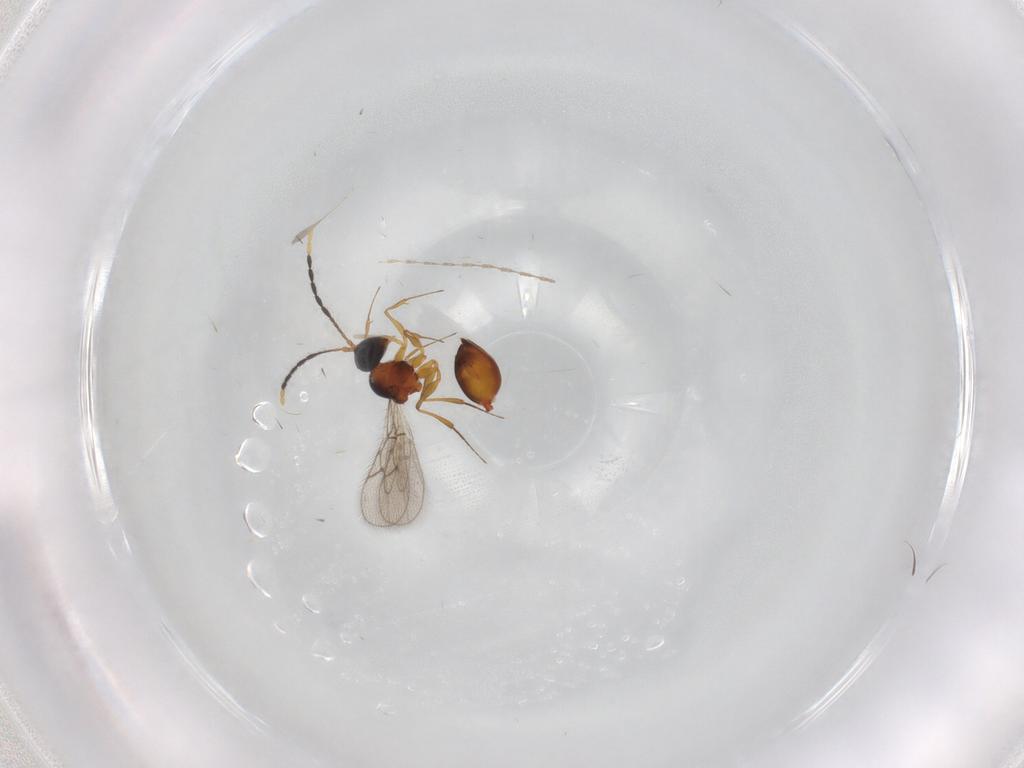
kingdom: Animalia
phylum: Arthropoda
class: Insecta
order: Hymenoptera
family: Figitidae
